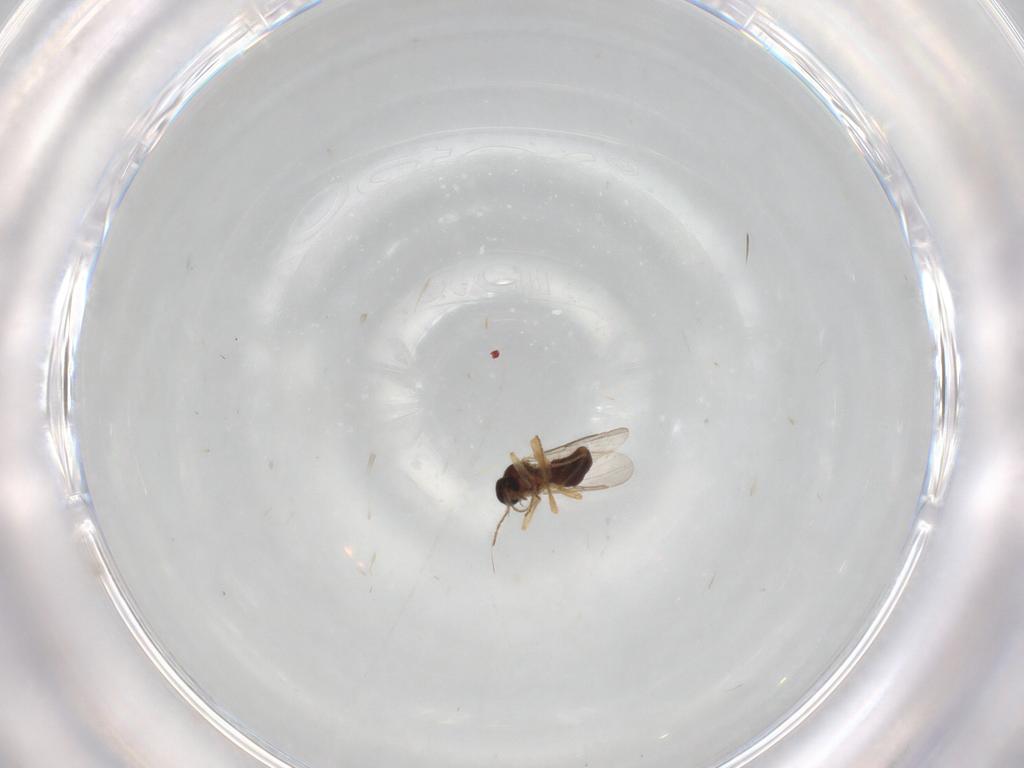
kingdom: Animalia
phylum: Arthropoda
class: Insecta
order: Diptera
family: Ceratopogonidae
